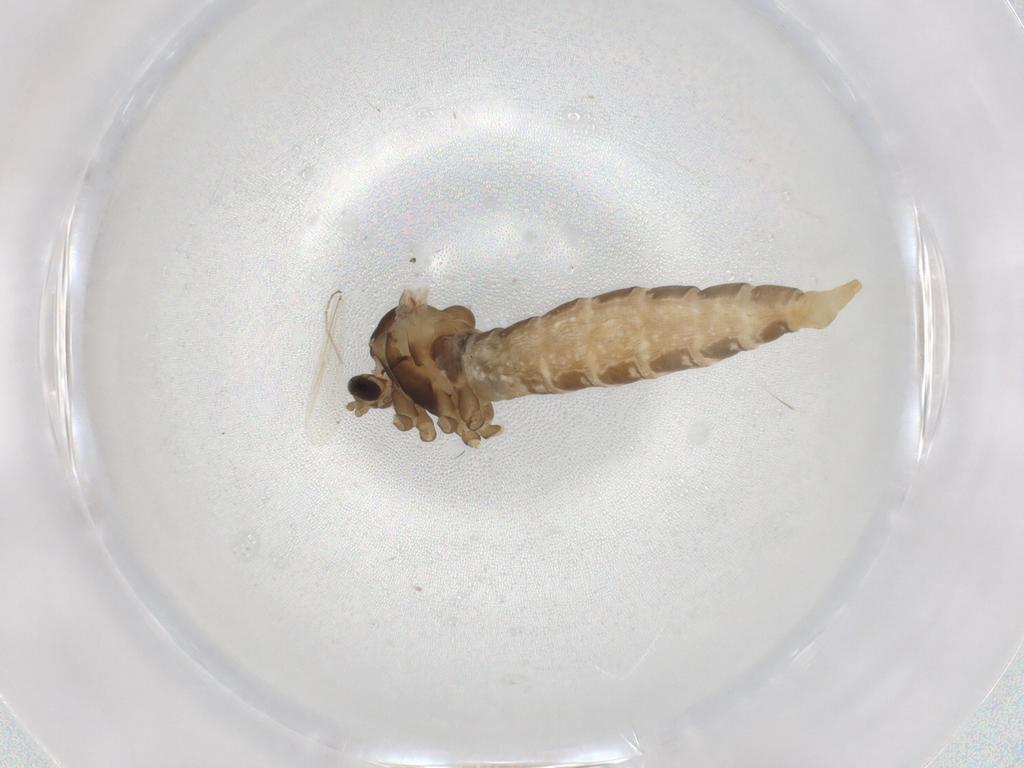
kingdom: Animalia
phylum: Arthropoda
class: Insecta
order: Diptera
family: Cecidomyiidae
